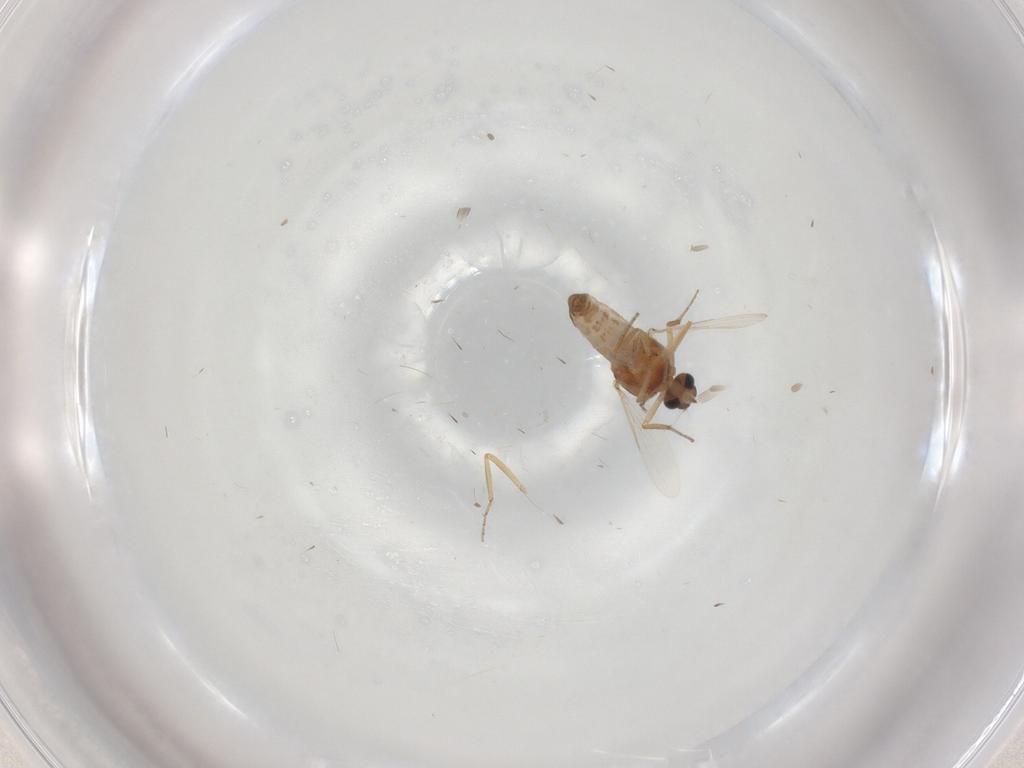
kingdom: Animalia
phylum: Arthropoda
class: Insecta
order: Diptera
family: Ceratopogonidae
